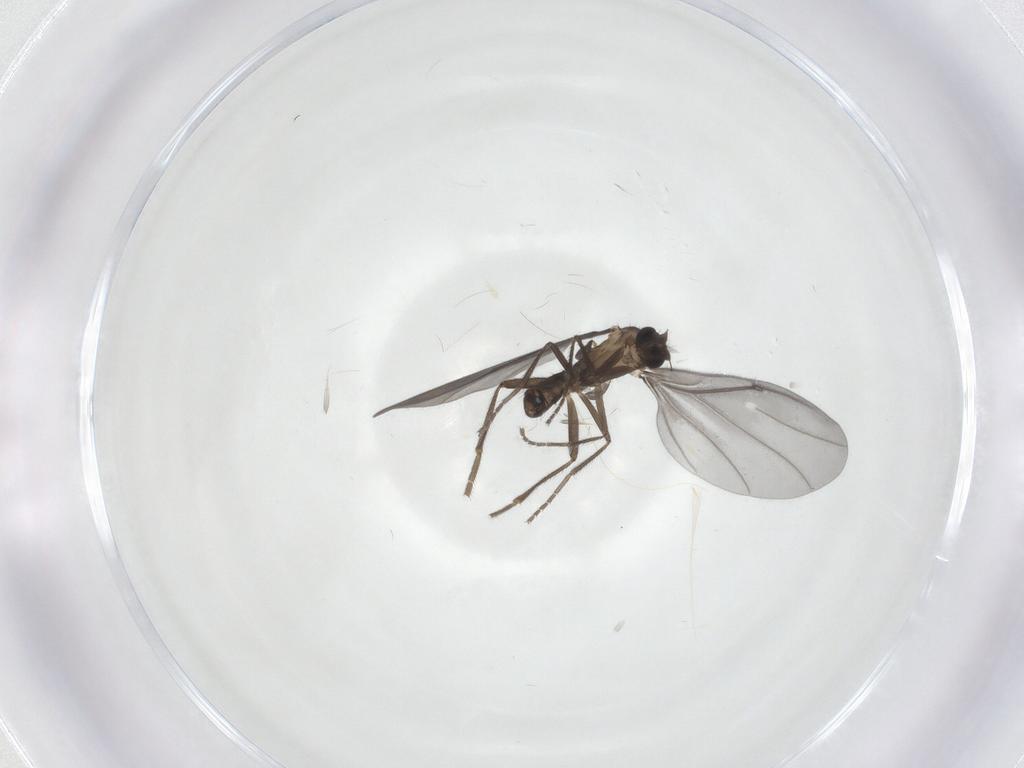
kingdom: Animalia
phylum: Arthropoda
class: Insecta
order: Diptera
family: Phoridae
